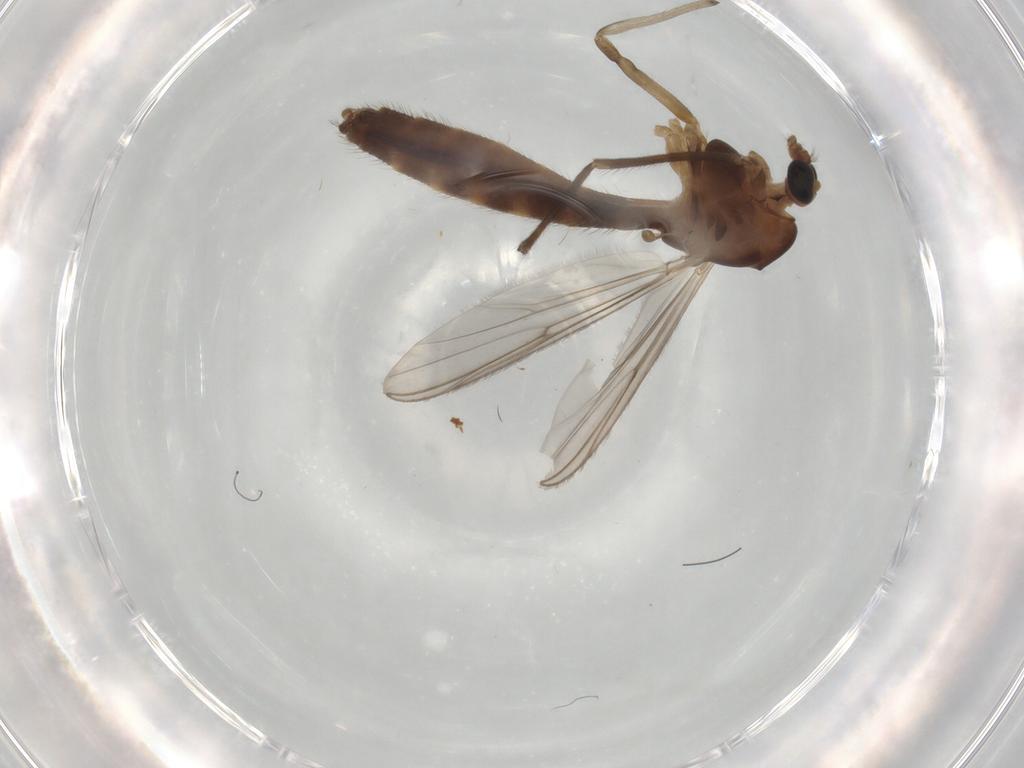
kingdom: Animalia
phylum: Arthropoda
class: Insecta
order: Diptera
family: Chironomidae
